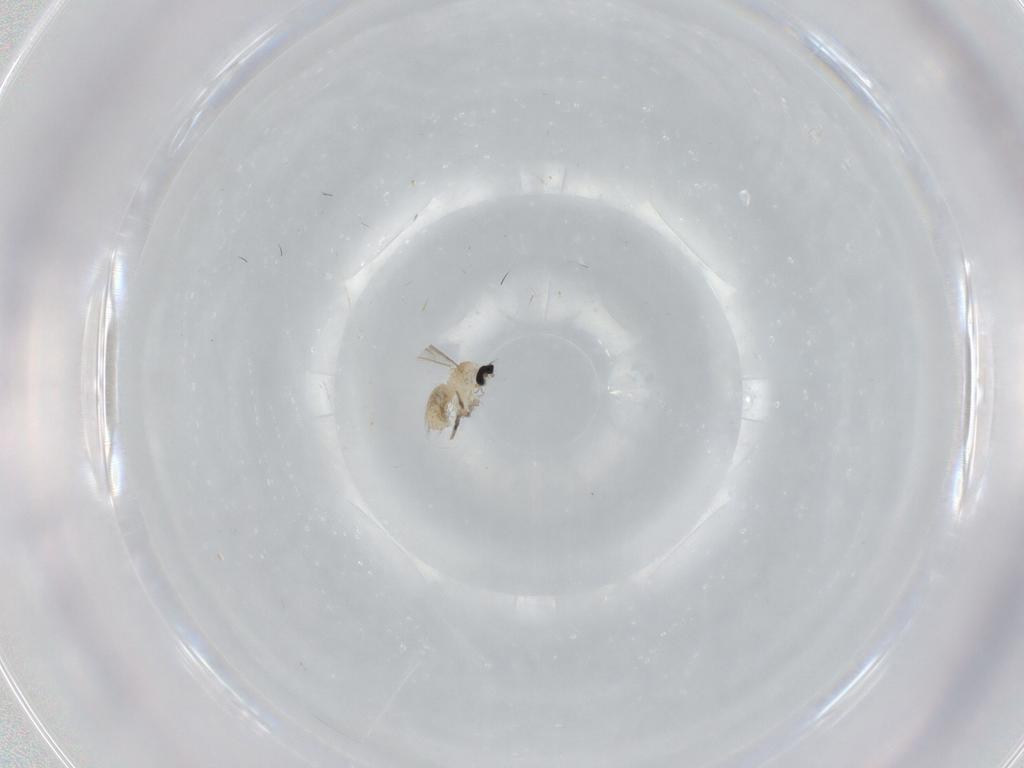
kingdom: Animalia
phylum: Arthropoda
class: Insecta
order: Diptera
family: Cecidomyiidae
